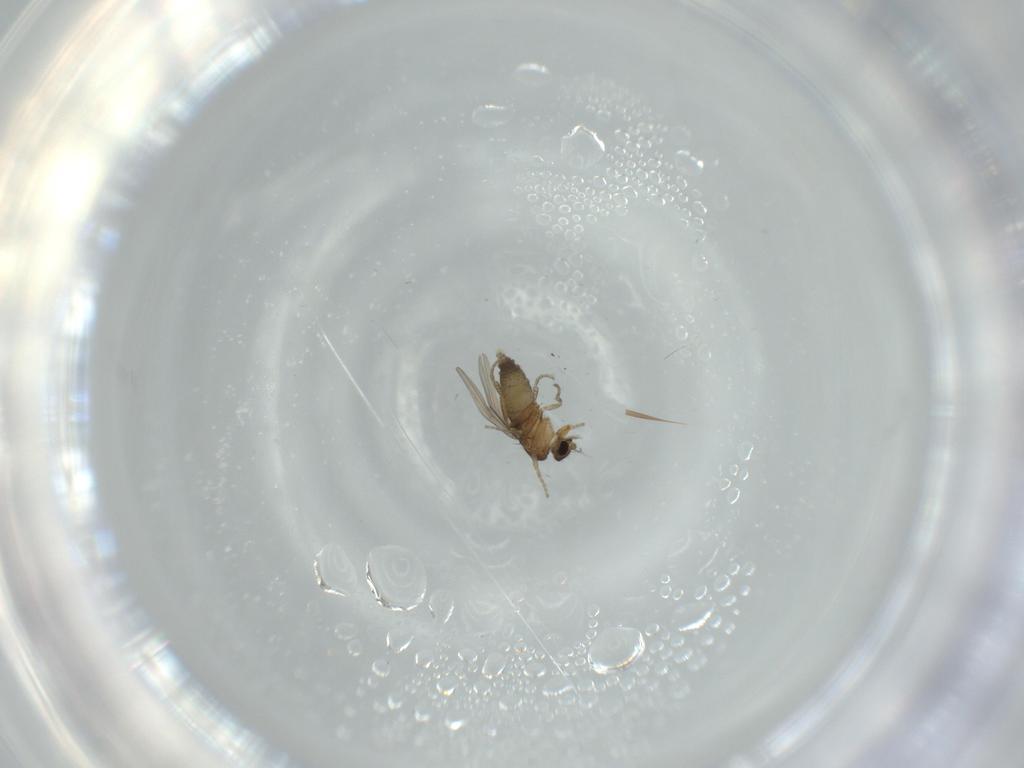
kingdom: Animalia
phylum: Arthropoda
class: Insecta
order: Diptera
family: Phoridae
